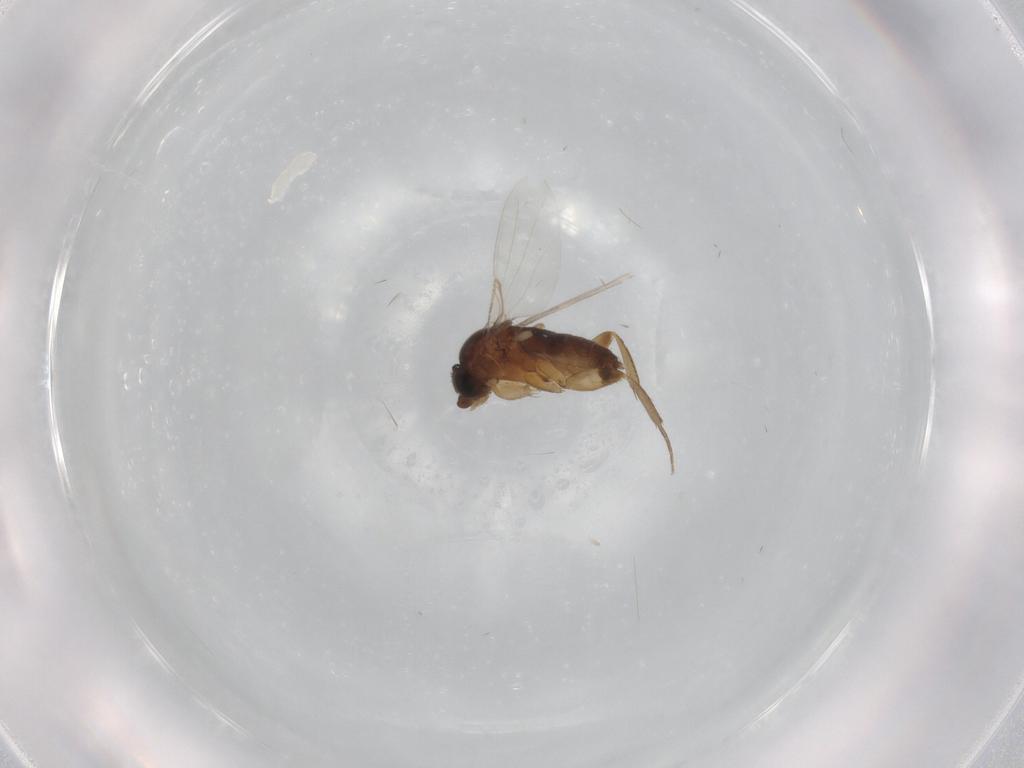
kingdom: Animalia
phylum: Arthropoda
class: Insecta
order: Diptera
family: Phoridae
